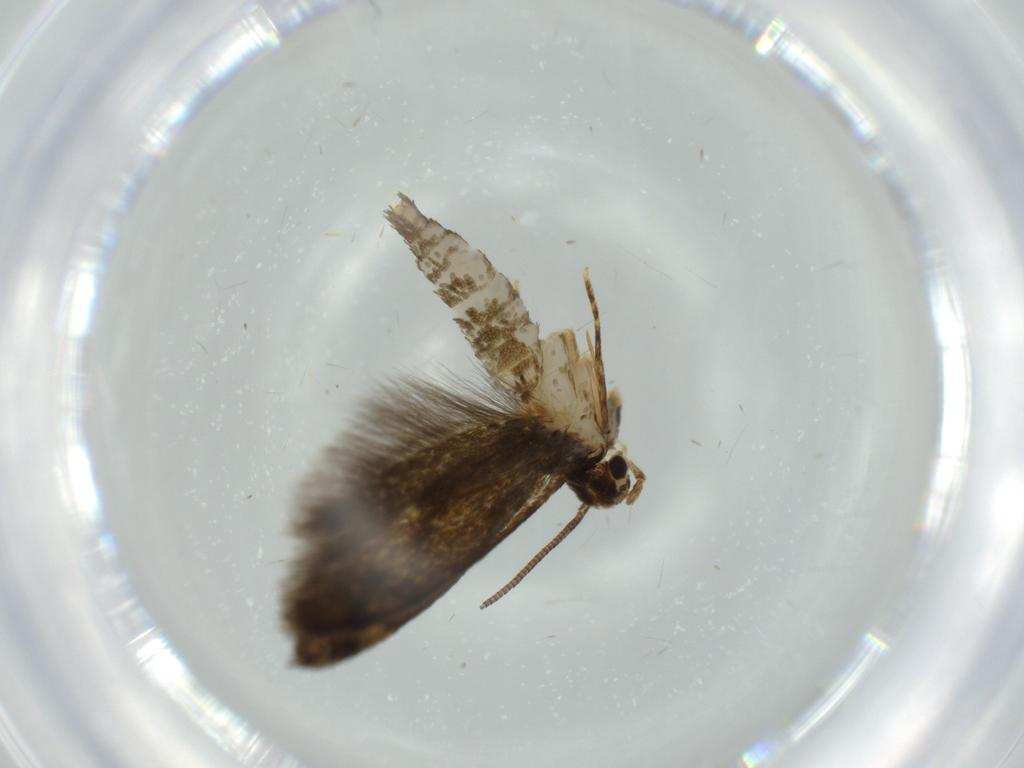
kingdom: Animalia
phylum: Arthropoda
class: Insecta
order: Lepidoptera
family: Tineidae
